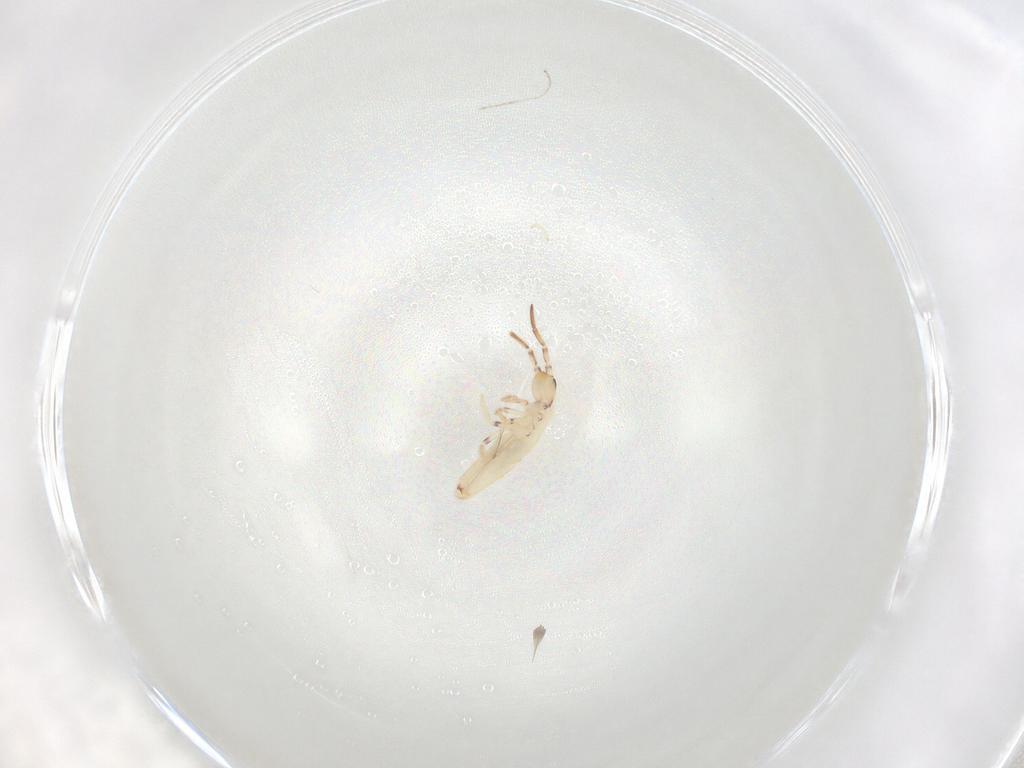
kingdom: Animalia
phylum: Arthropoda
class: Collembola
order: Entomobryomorpha
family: Entomobryidae
